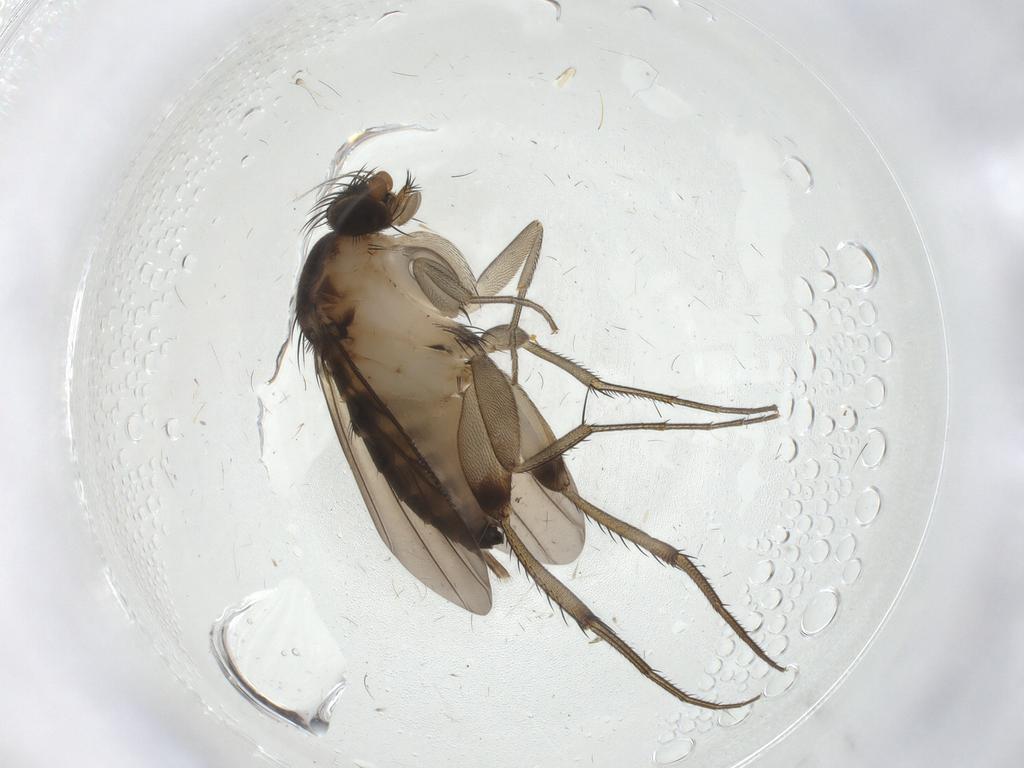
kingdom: Animalia
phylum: Arthropoda
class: Insecta
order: Diptera
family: Phoridae
